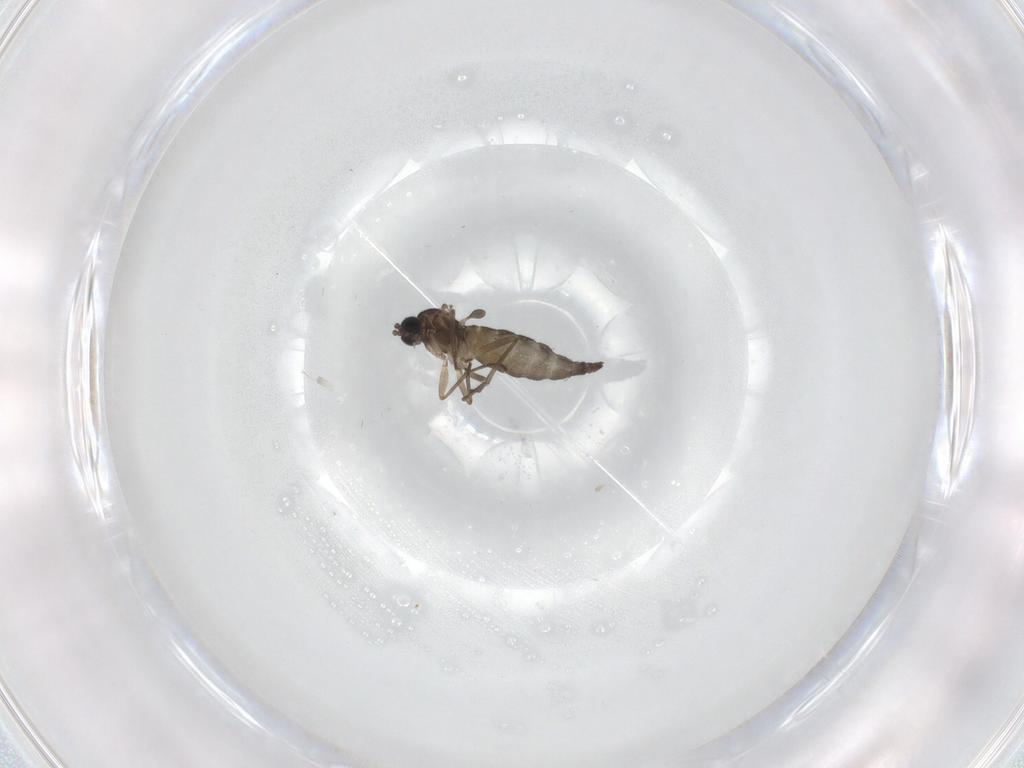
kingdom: Animalia
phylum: Arthropoda
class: Insecta
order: Diptera
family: Sciaridae
